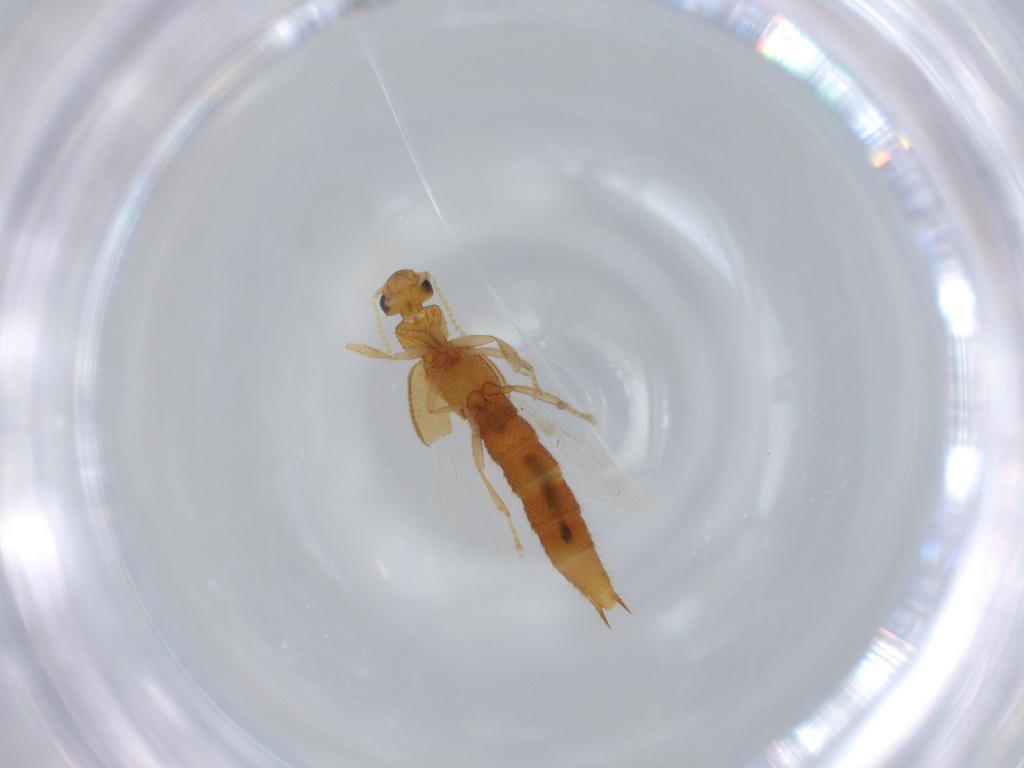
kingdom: Animalia
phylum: Arthropoda
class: Insecta
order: Coleoptera
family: Staphylinidae
